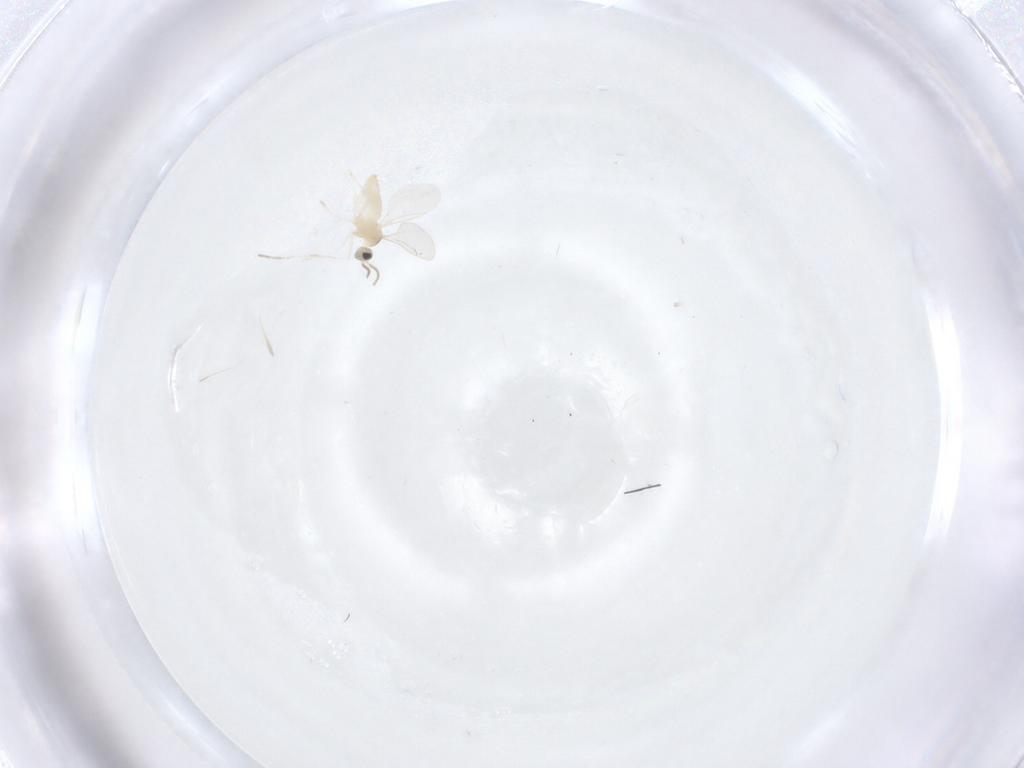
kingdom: Animalia
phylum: Arthropoda
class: Insecta
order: Diptera
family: Cecidomyiidae
